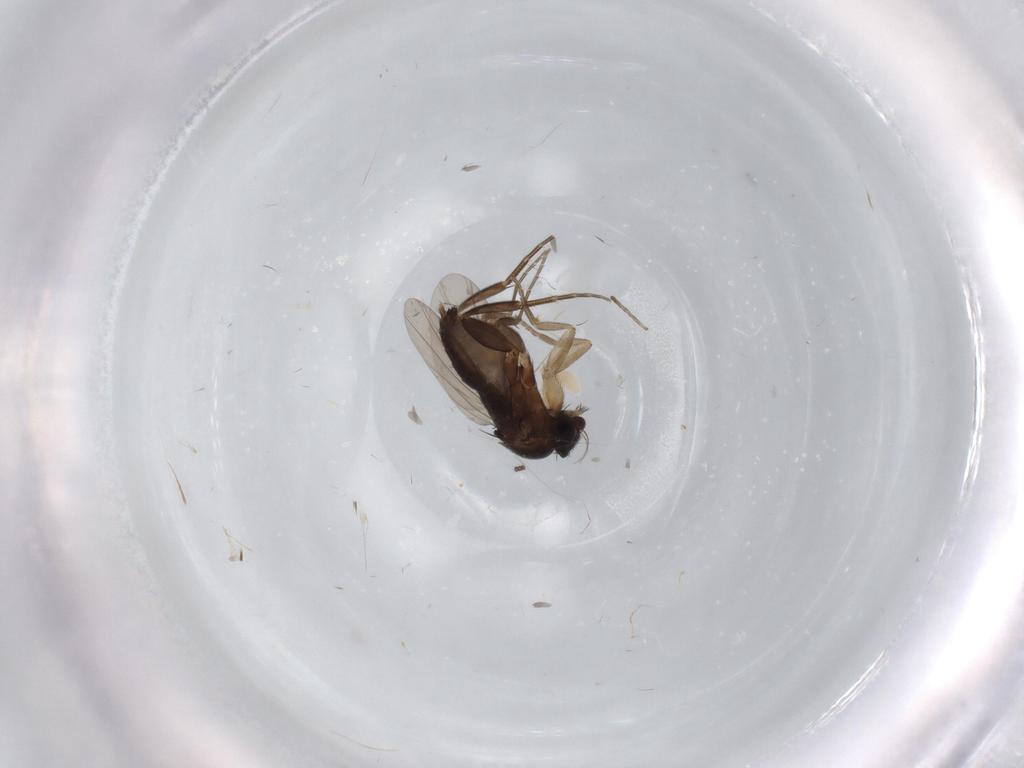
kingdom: Animalia
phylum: Arthropoda
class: Insecta
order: Diptera
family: Phoridae
